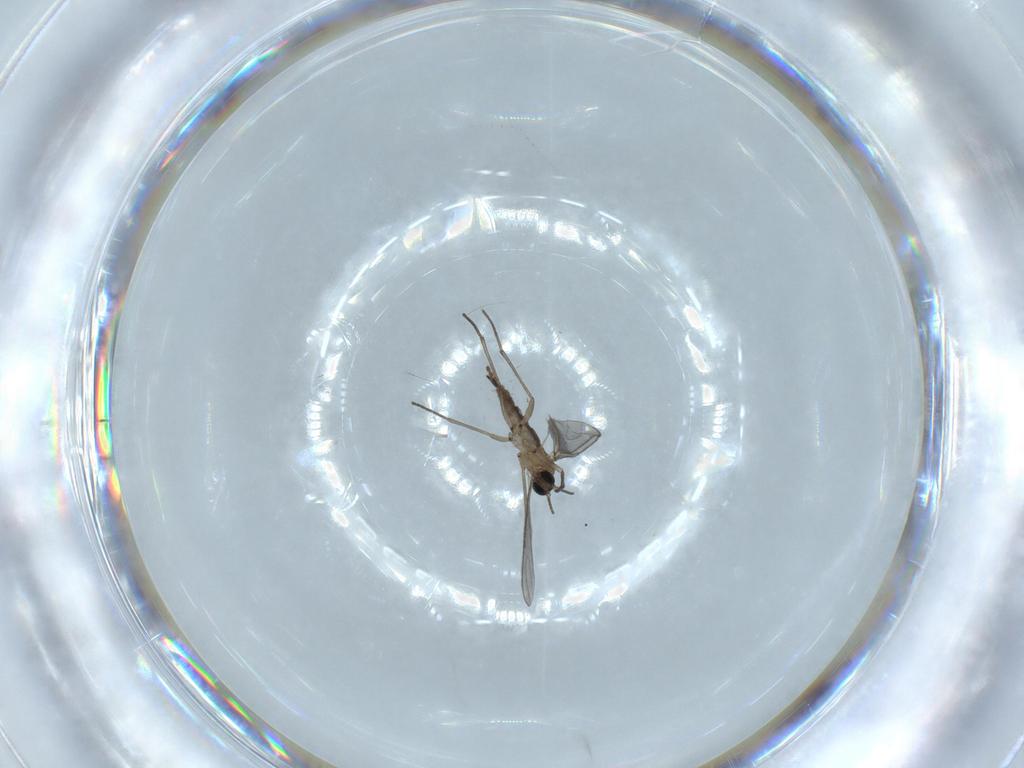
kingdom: Animalia
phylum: Arthropoda
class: Insecta
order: Diptera
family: Sciaridae
